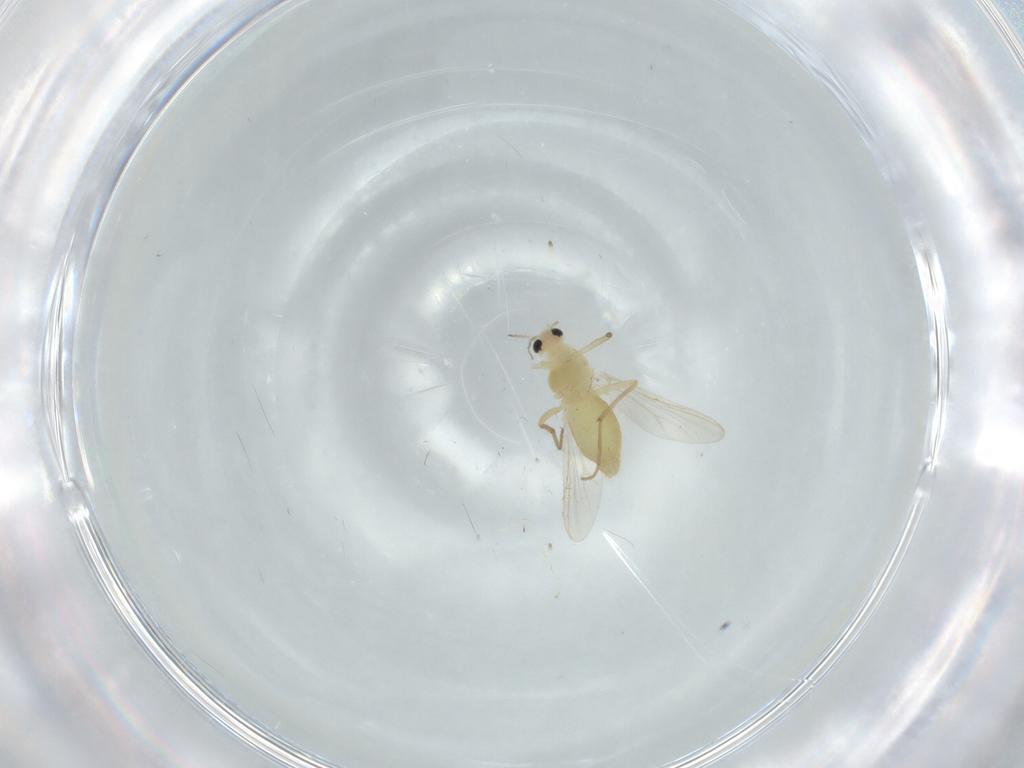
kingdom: Animalia
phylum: Arthropoda
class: Insecta
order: Diptera
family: Chironomidae
